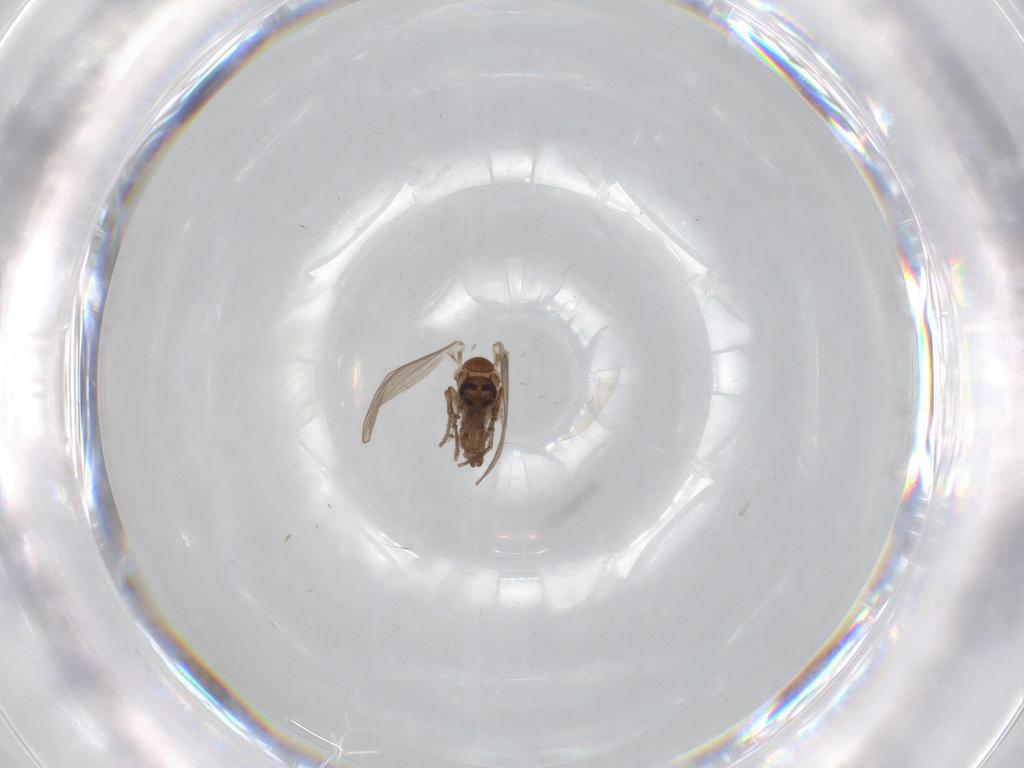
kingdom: Animalia
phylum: Arthropoda
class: Insecta
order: Diptera
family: Psychodidae
